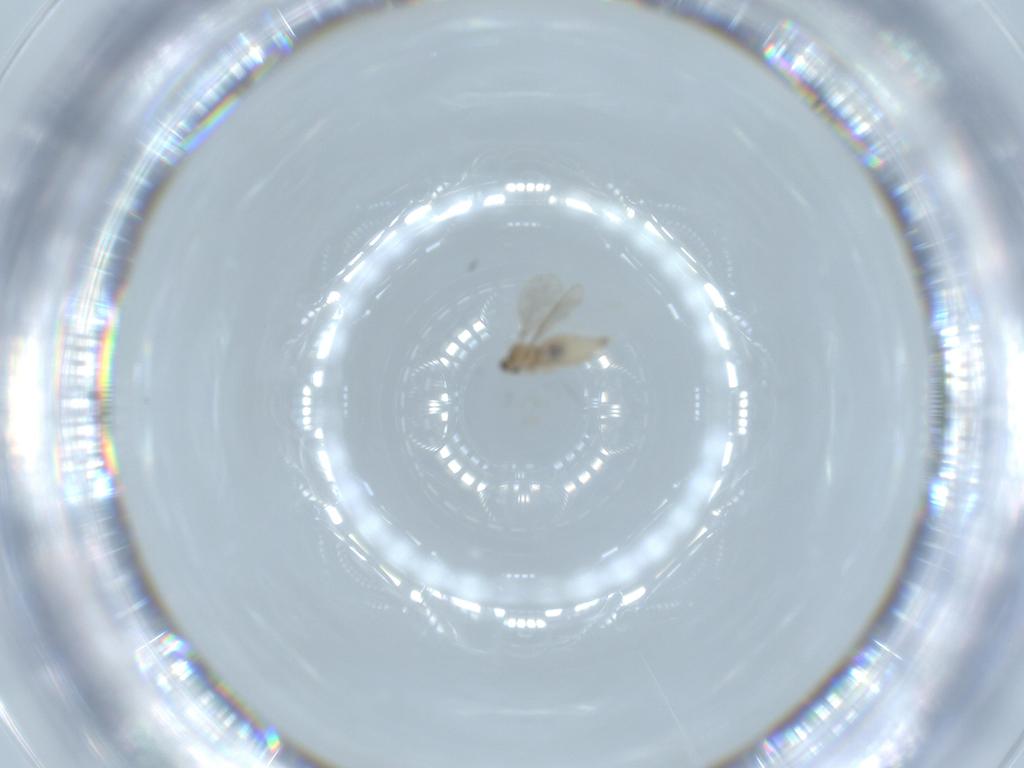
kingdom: Animalia
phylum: Arthropoda
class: Insecta
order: Diptera
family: Cecidomyiidae
